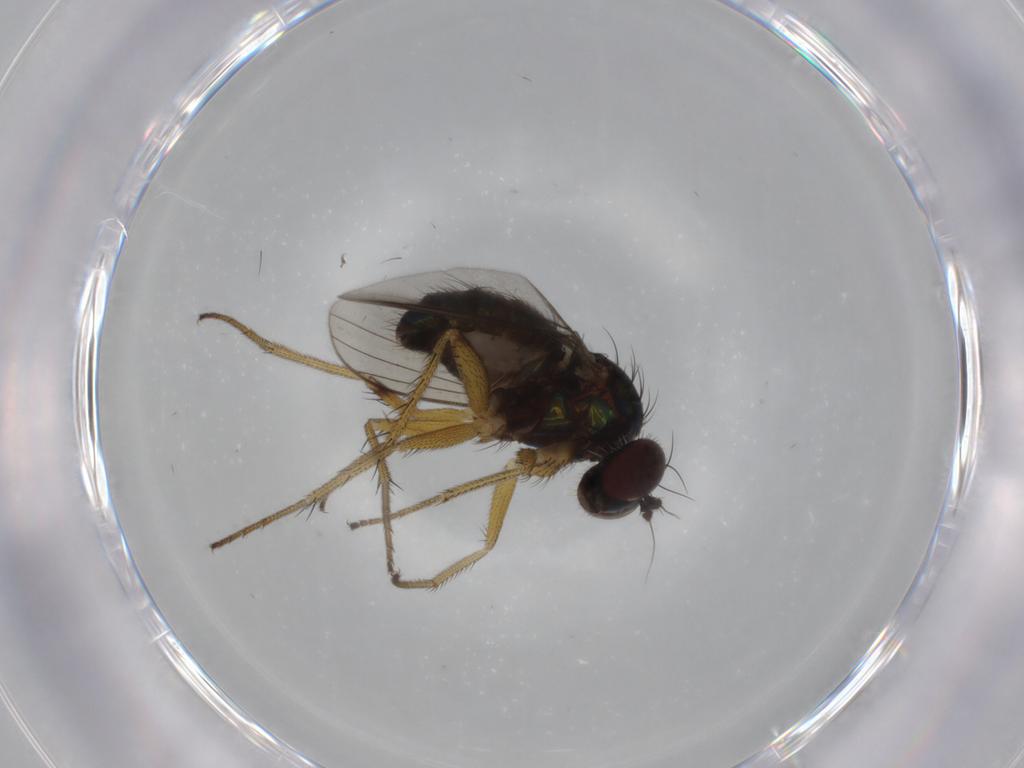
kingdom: Animalia
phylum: Arthropoda
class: Insecta
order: Diptera
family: Dolichopodidae
